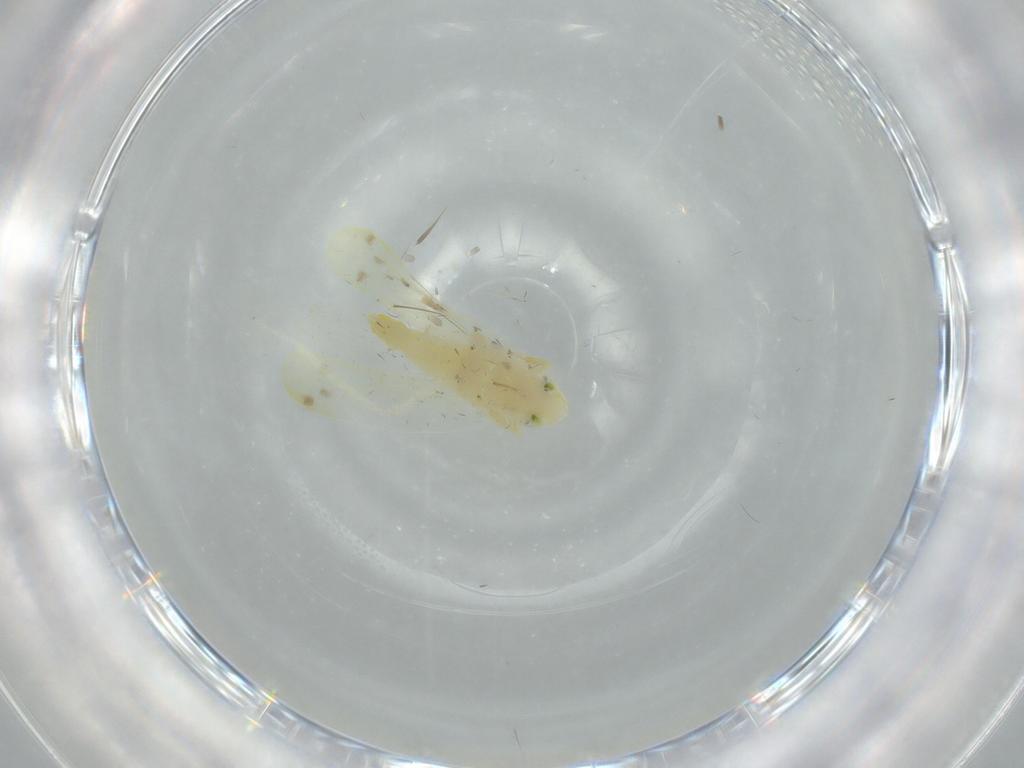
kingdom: Animalia
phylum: Arthropoda
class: Insecta
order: Hemiptera
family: Cicadellidae
